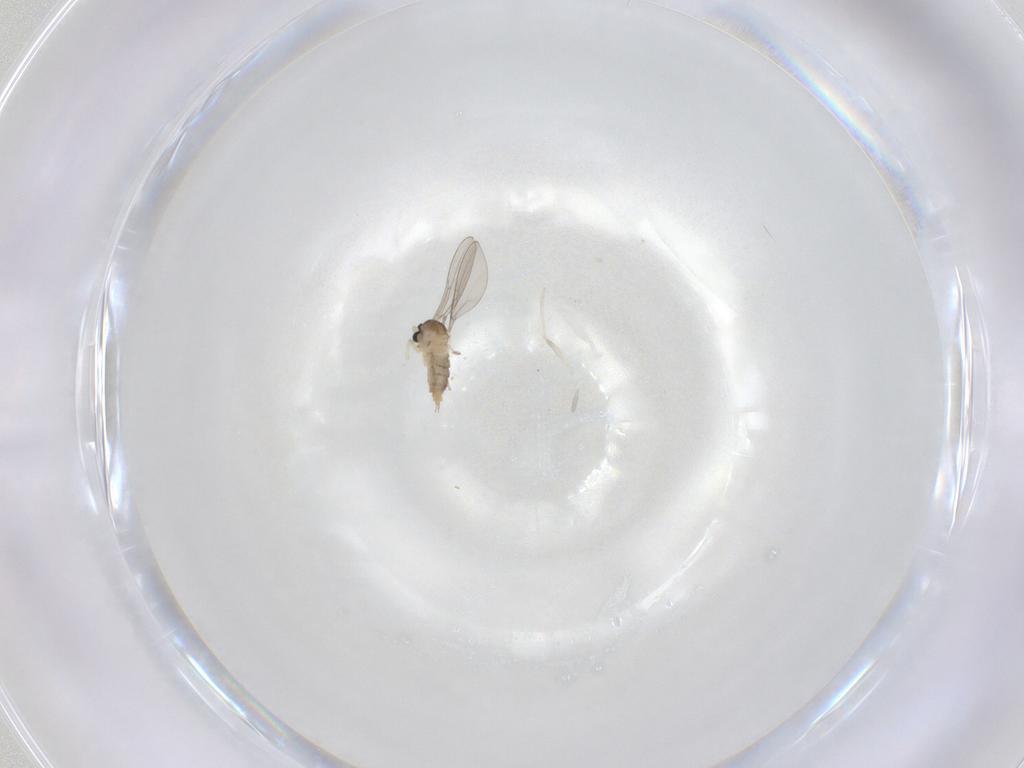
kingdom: Animalia
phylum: Arthropoda
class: Insecta
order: Diptera
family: Cecidomyiidae
